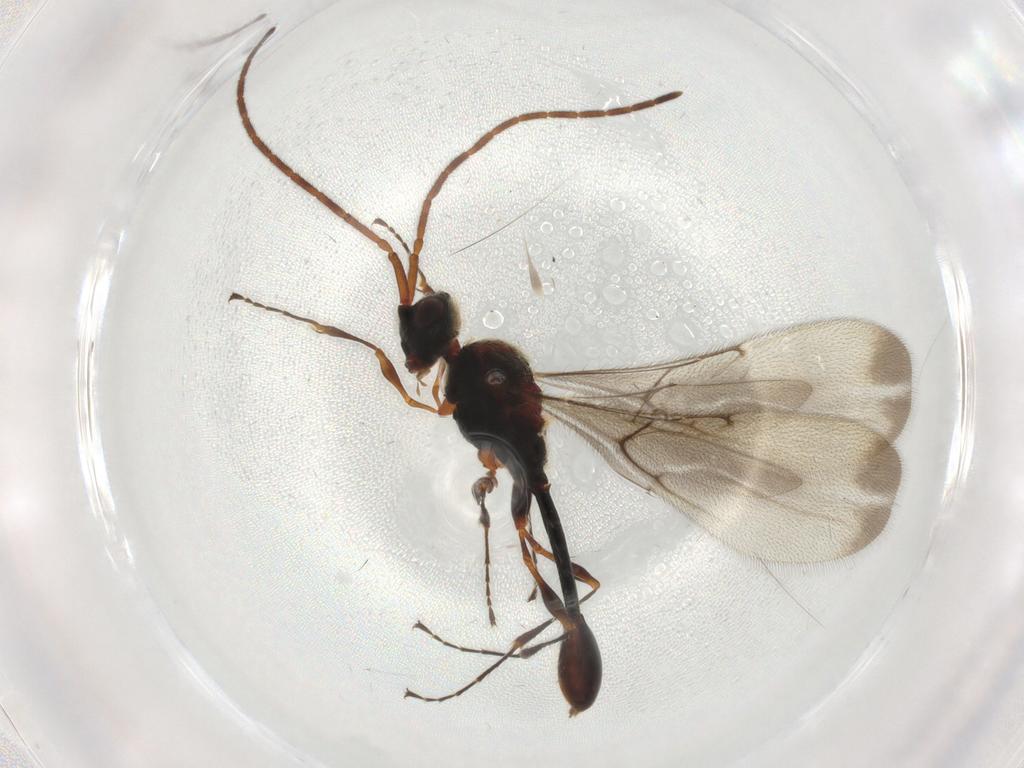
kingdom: Animalia
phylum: Arthropoda
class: Insecta
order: Hymenoptera
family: Diapriidae
